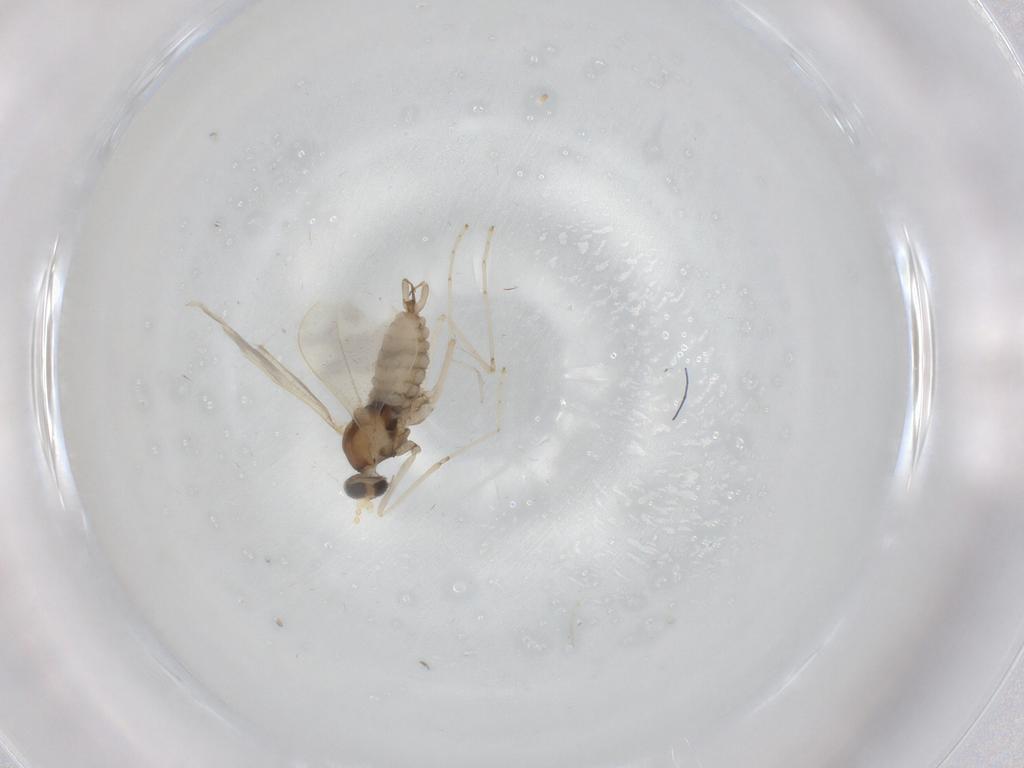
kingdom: Animalia
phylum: Arthropoda
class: Insecta
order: Diptera
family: Cecidomyiidae
